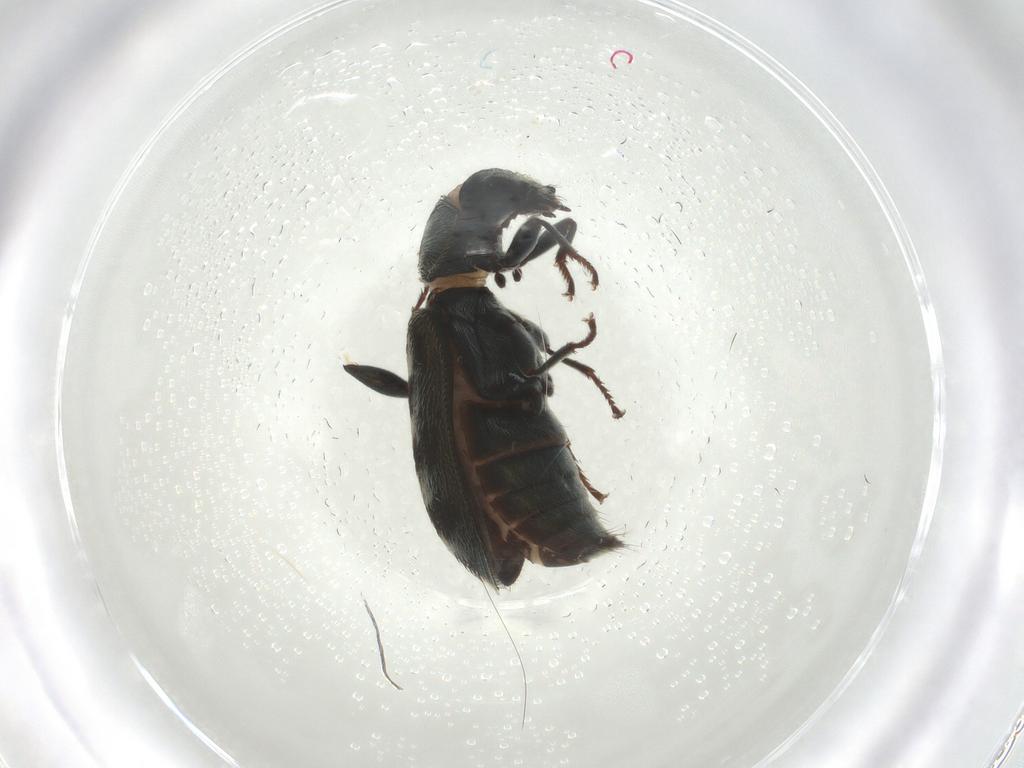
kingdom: Animalia
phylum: Arthropoda
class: Insecta
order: Coleoptera
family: Melyridae
